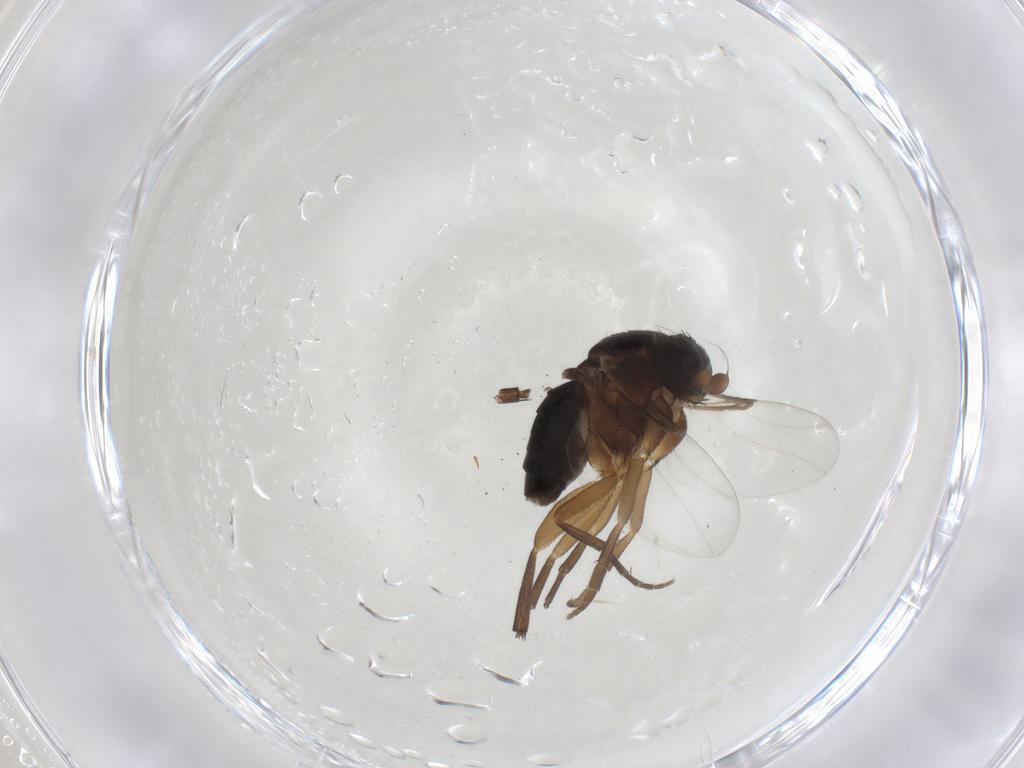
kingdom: Animalia
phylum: Arthropoda
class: Insecta
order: Diptera
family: Phoridae
